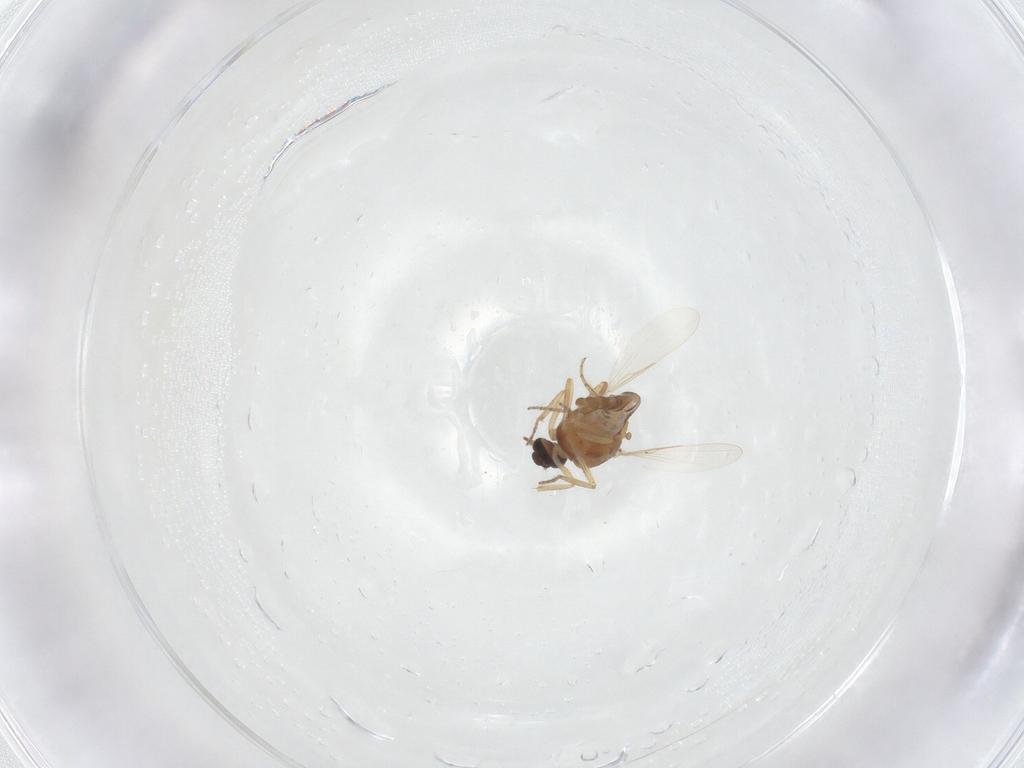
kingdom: Animalia
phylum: Arthropoda
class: Insecta
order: Diptera
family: Ceratopogonidae
